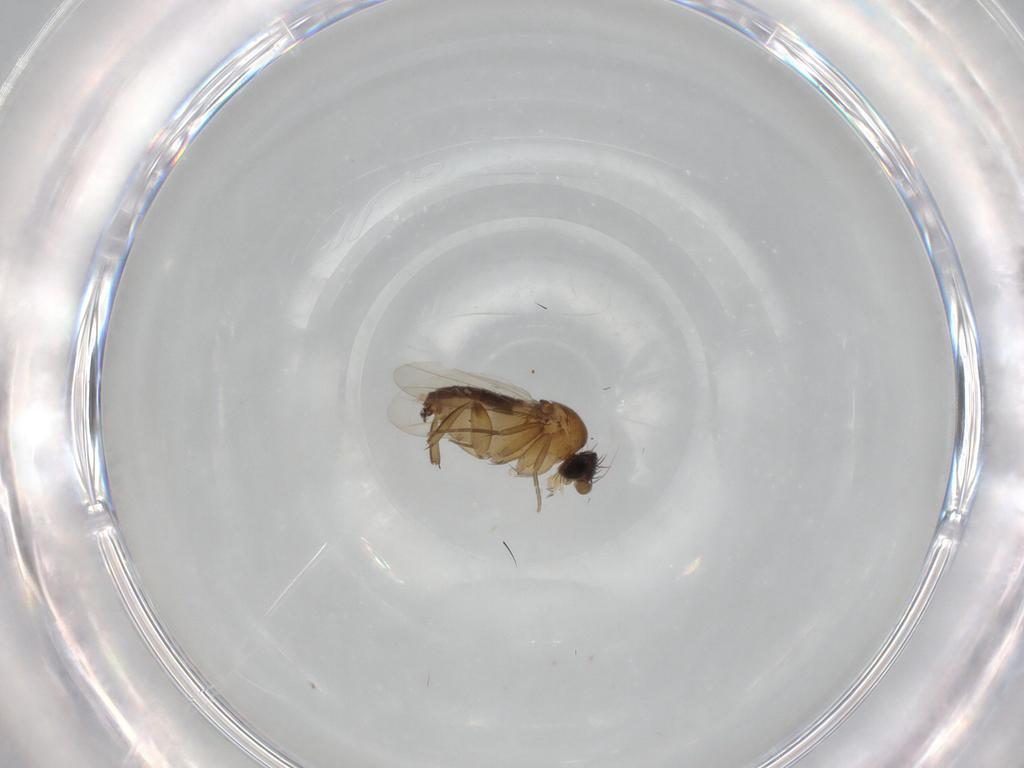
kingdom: Animalia
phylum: Arthropoda
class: Insecta
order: Diptera
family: Phoridae
